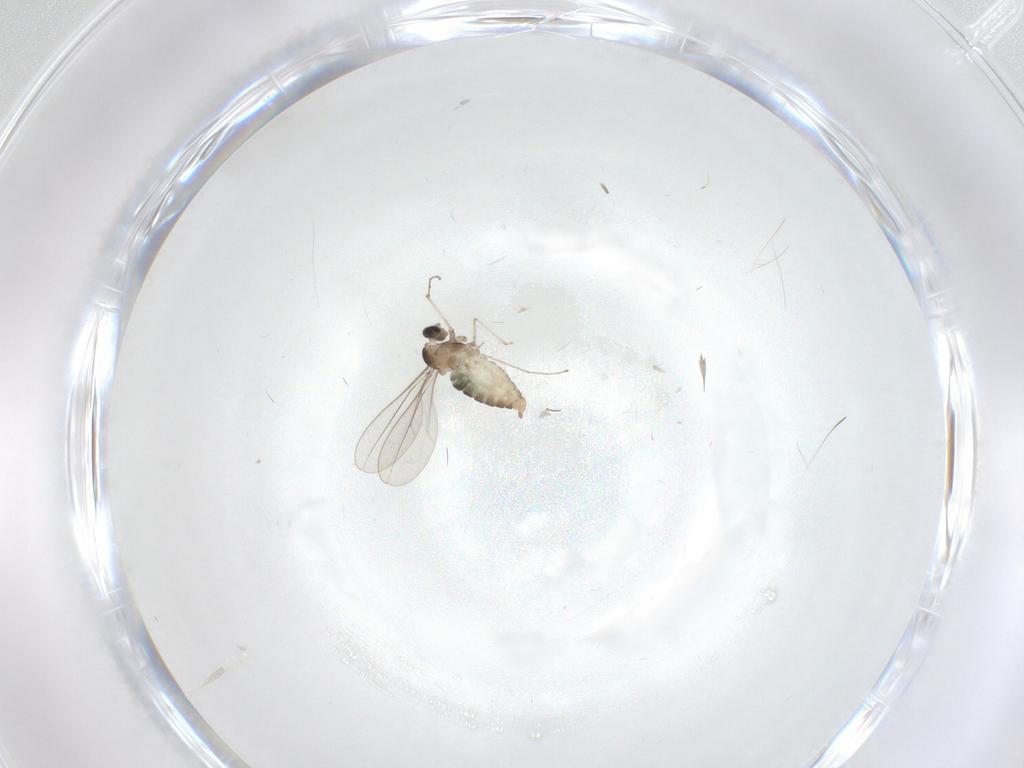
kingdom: Animalia
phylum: Arthropoda
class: Insecta
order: Diptera
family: Cecidomyiidae
